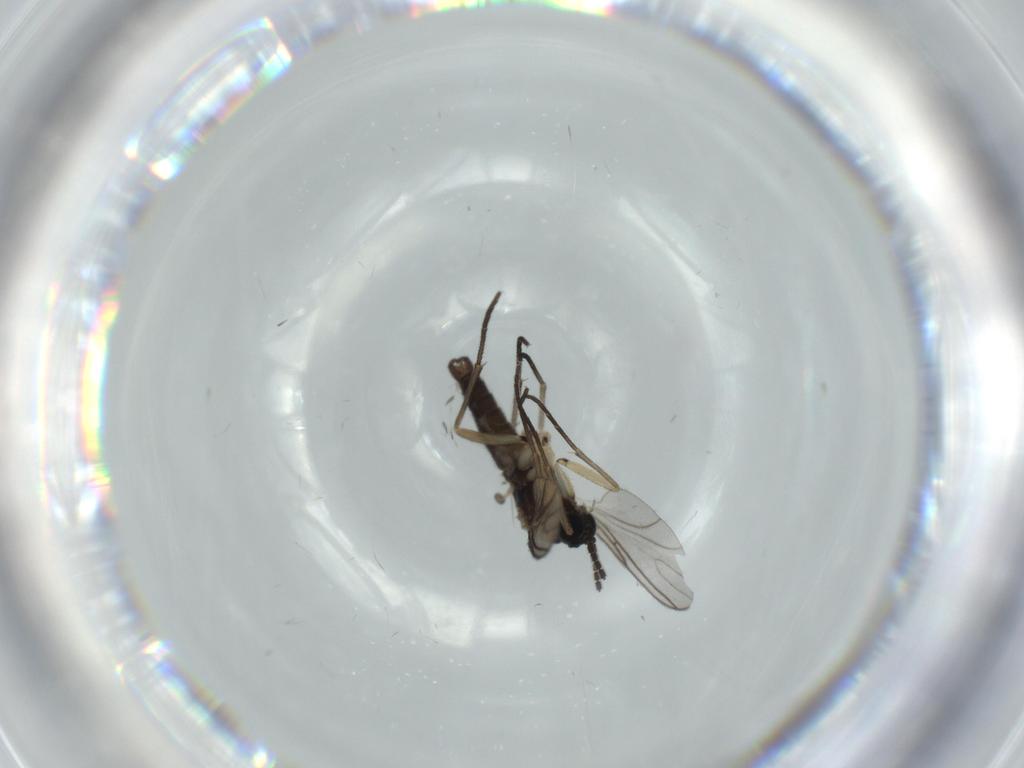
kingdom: Animalia
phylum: Arthropoda
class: Insecta
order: Diptera
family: Sciaridae
